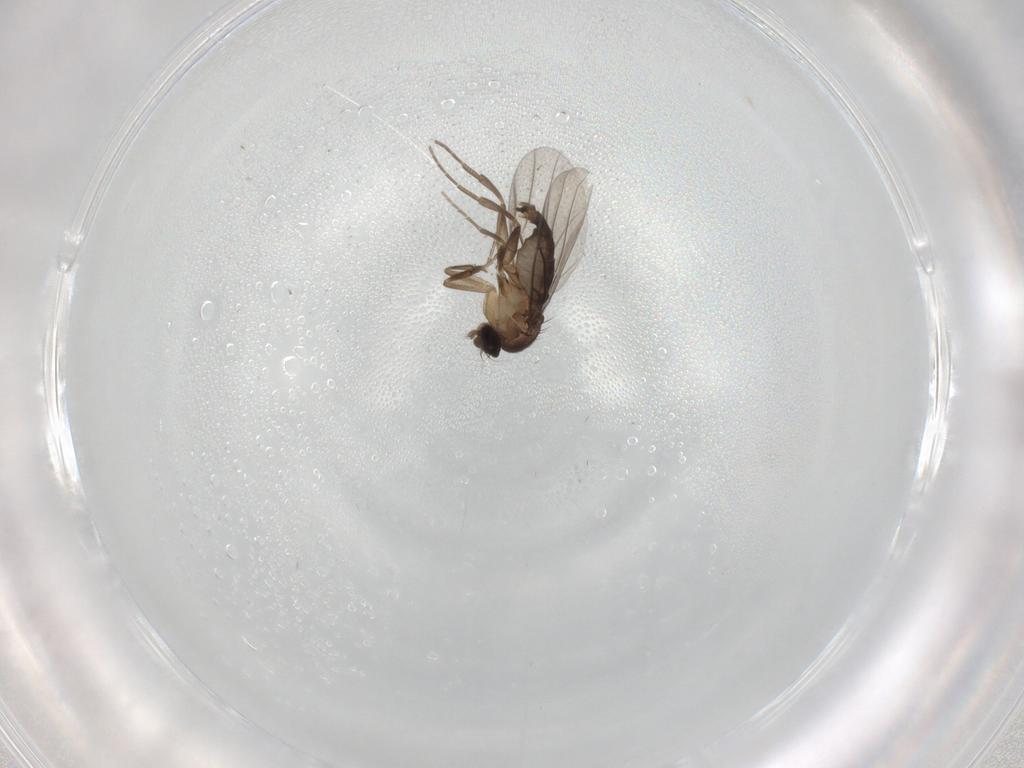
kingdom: Animalia
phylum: Arthropoda
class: Insecta
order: Diptera
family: Phoridae
